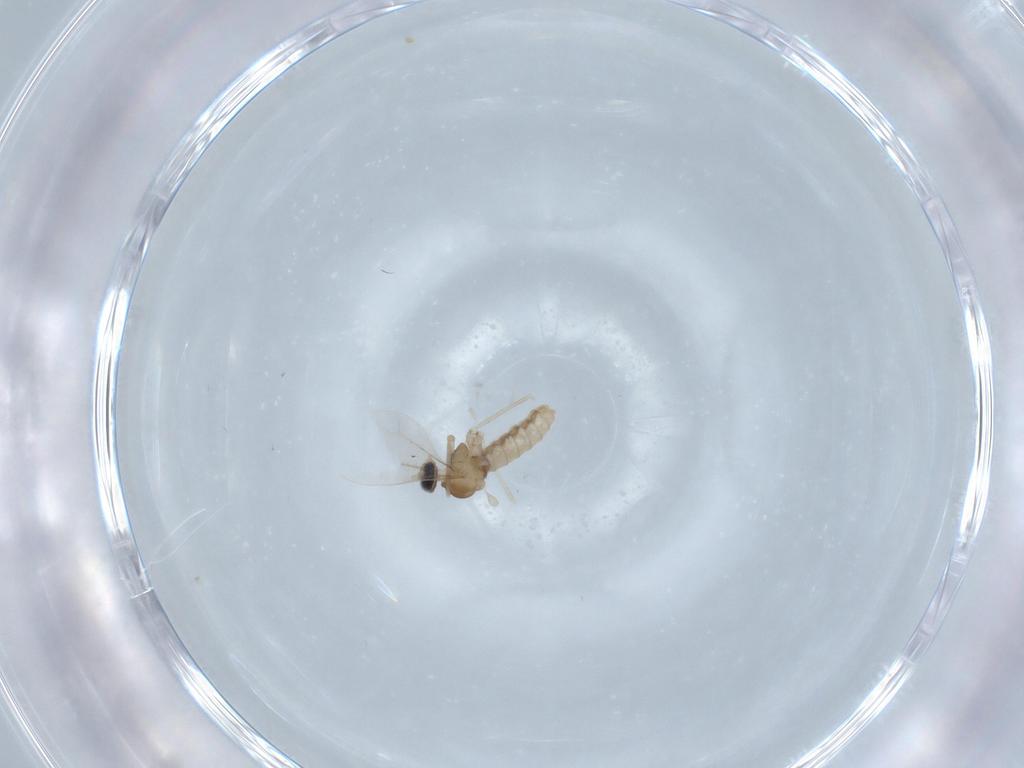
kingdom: Animalia
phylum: Arthropoda
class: Insecta
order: Diptera
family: Cecidomyiidae
